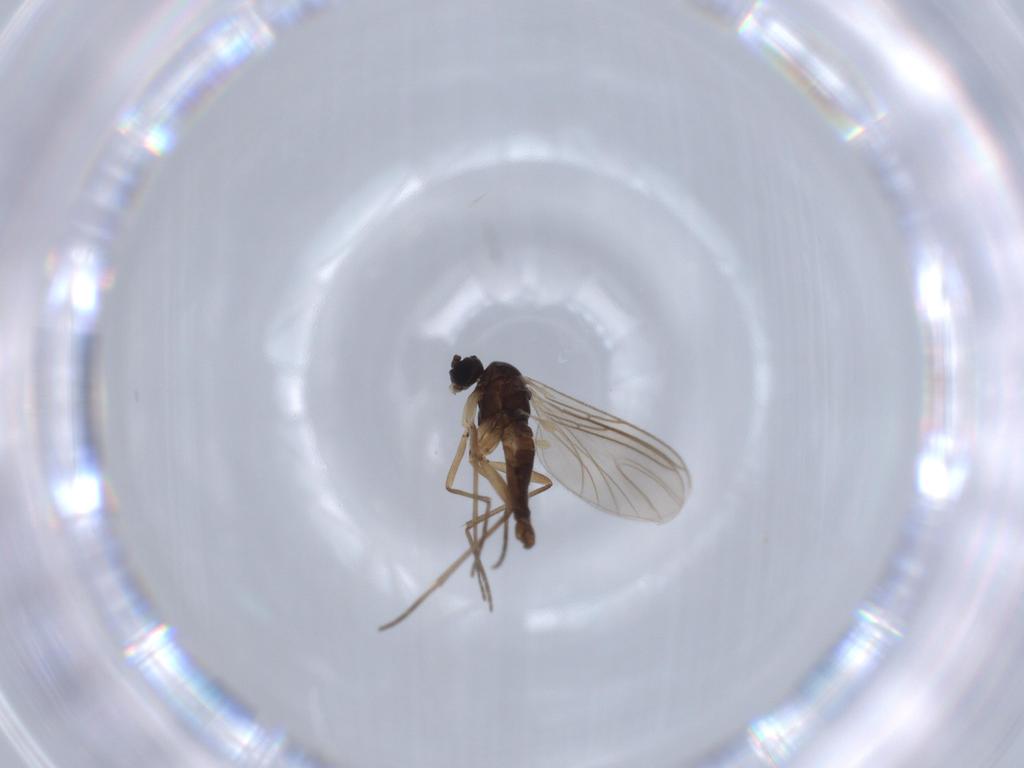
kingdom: Animalia
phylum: Arthropoda
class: Insecta
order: Diptera
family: Sciaridae
